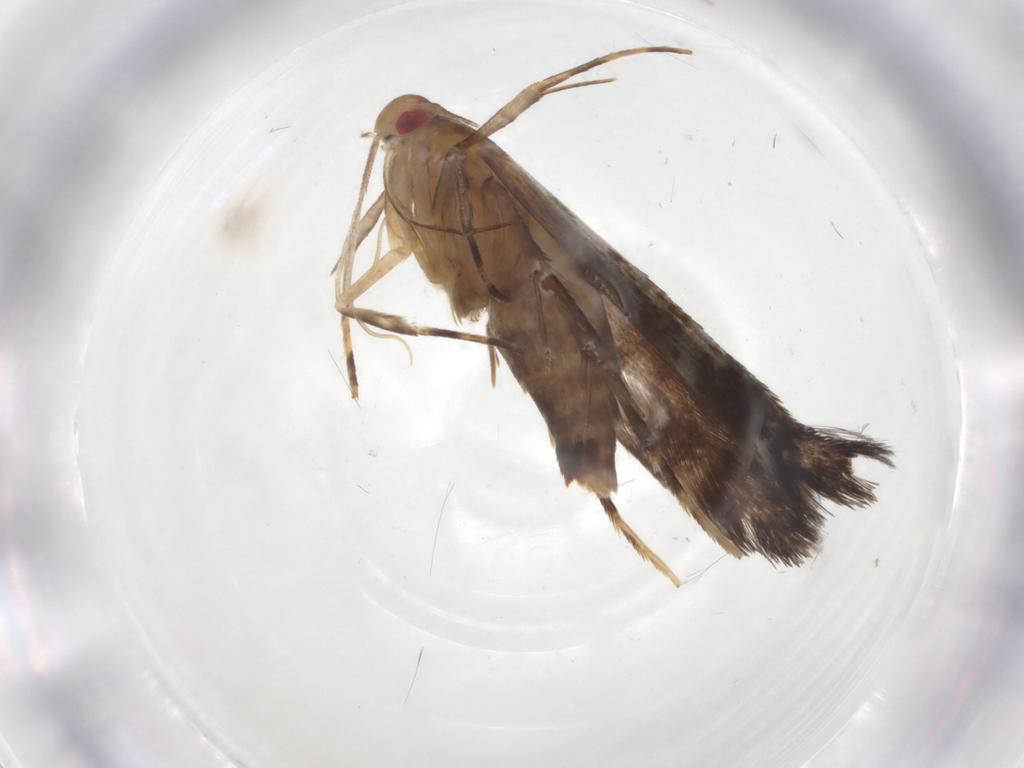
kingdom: Animalia
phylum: Arthropoda
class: Insecta
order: Lepidoptera
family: Cosmopterigidae
